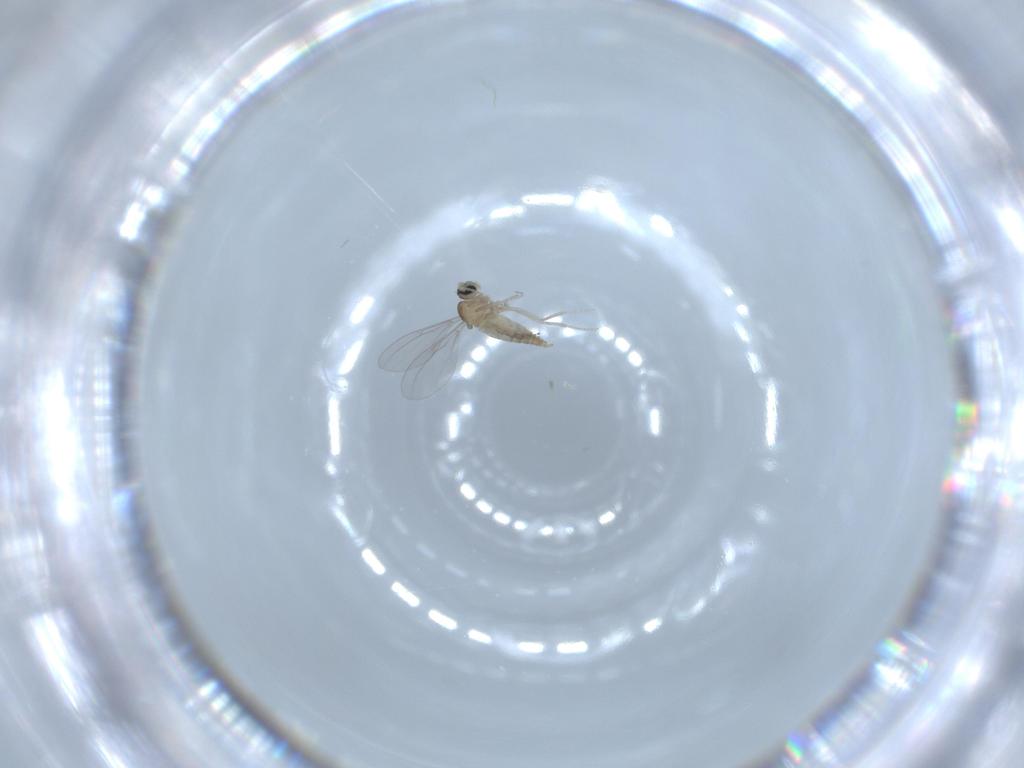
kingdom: Animalia
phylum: Arthropoda
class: Insecta
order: Diptera
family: Cecidomyiidae
